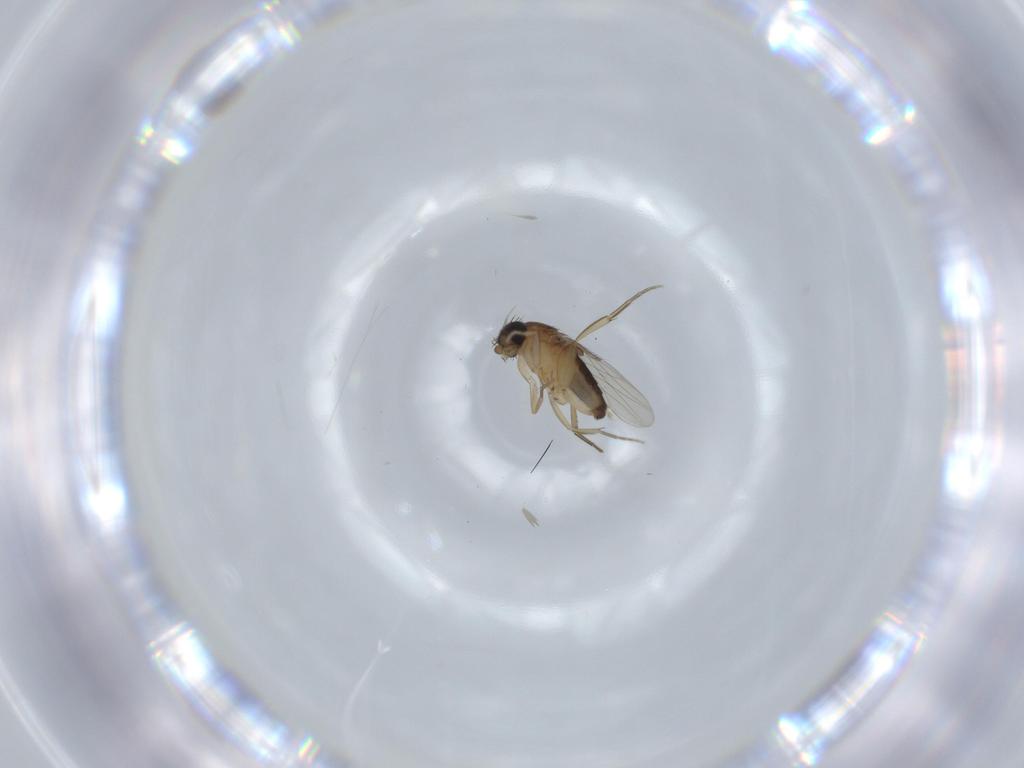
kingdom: Animalia
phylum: Arthropoda
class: Insecta
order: Diptera
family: Phoridae
